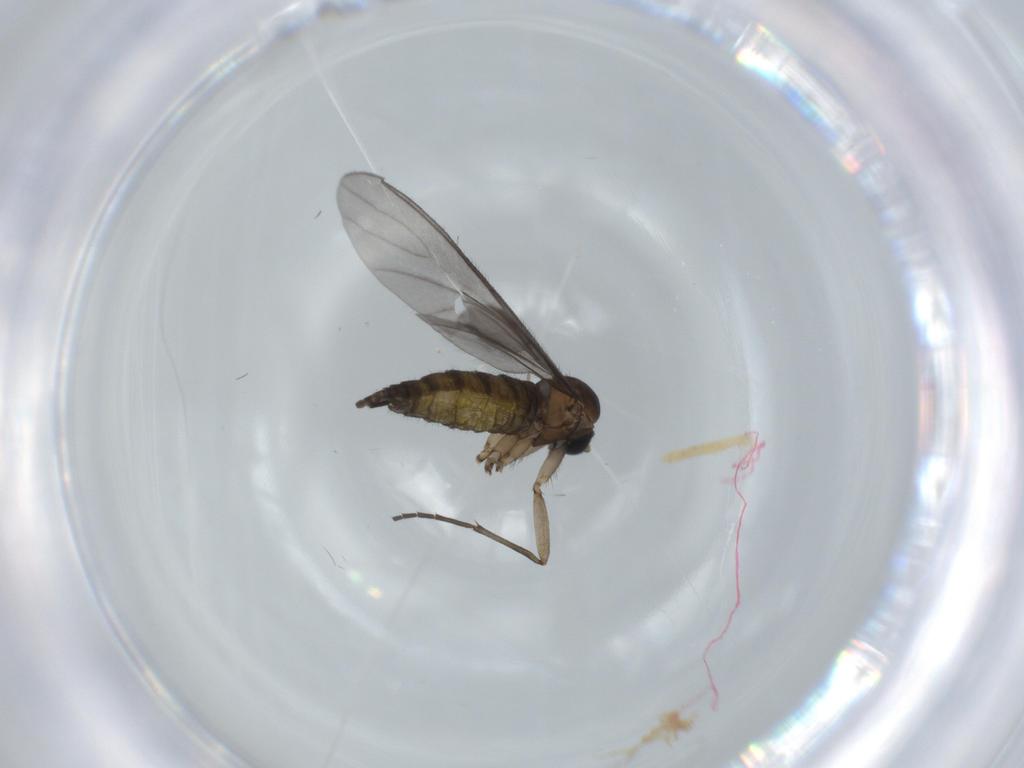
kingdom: Animalia
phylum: Arthropoda
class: Insecta
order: Diptera
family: Sciaridae
